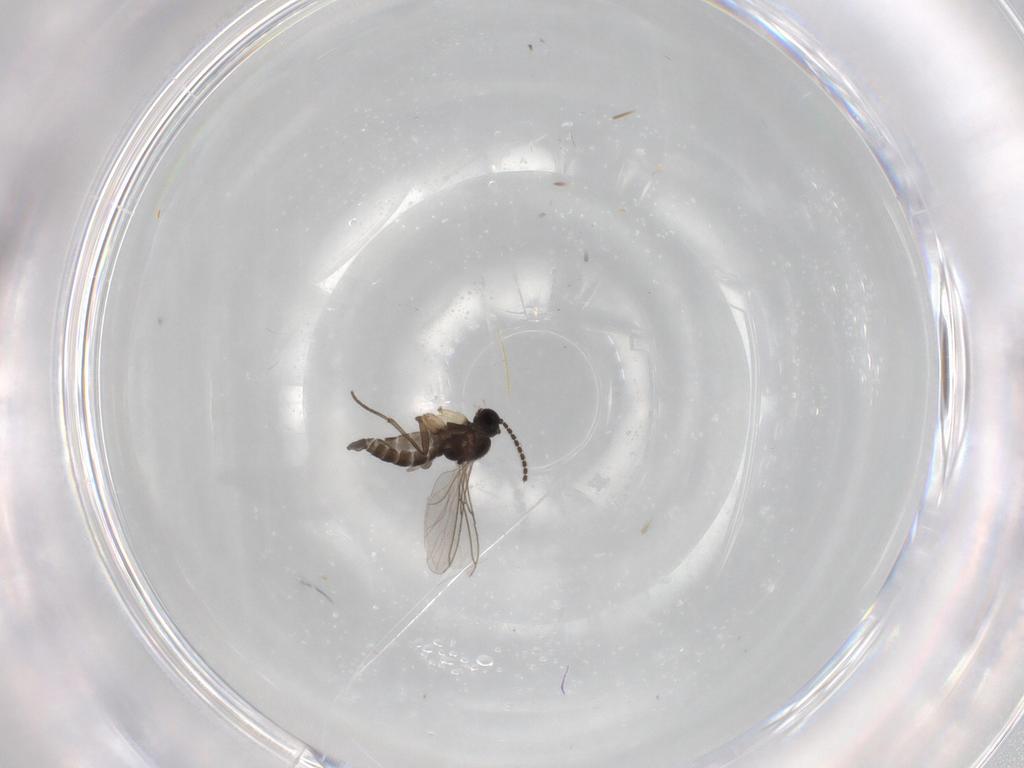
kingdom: Animalia
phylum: Arthropoda
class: Insecta
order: Diptera
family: Sciaridae
